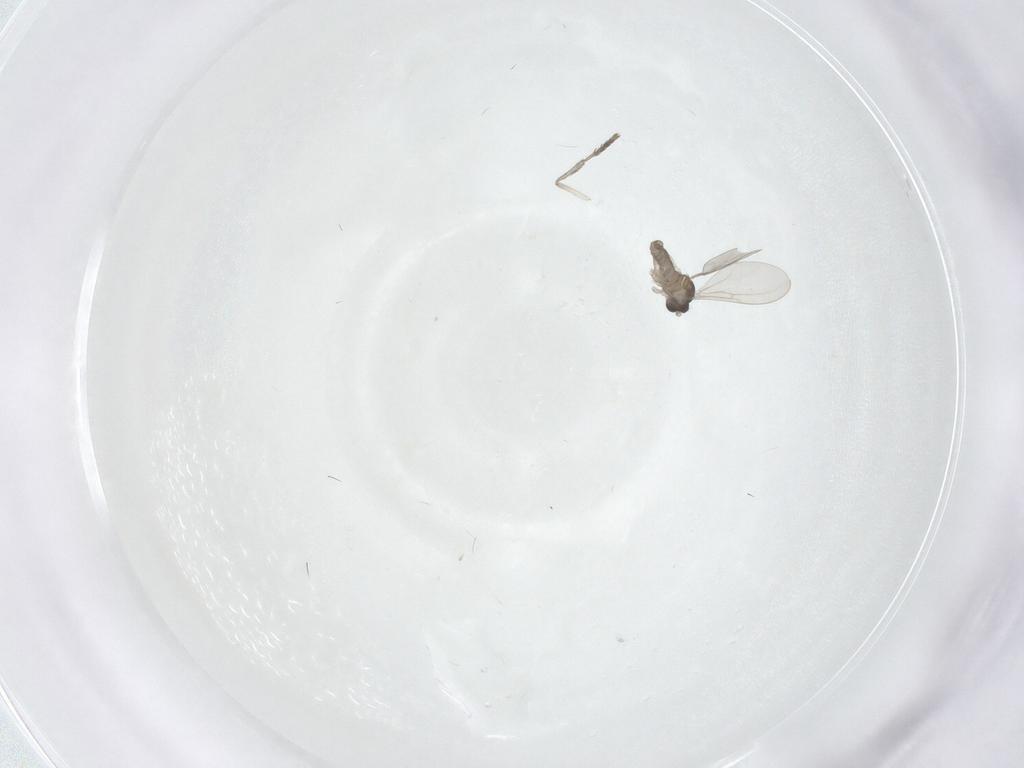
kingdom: Animalia
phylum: Arthropoda
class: Insecta
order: Diptera
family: Cecidomyiidae
